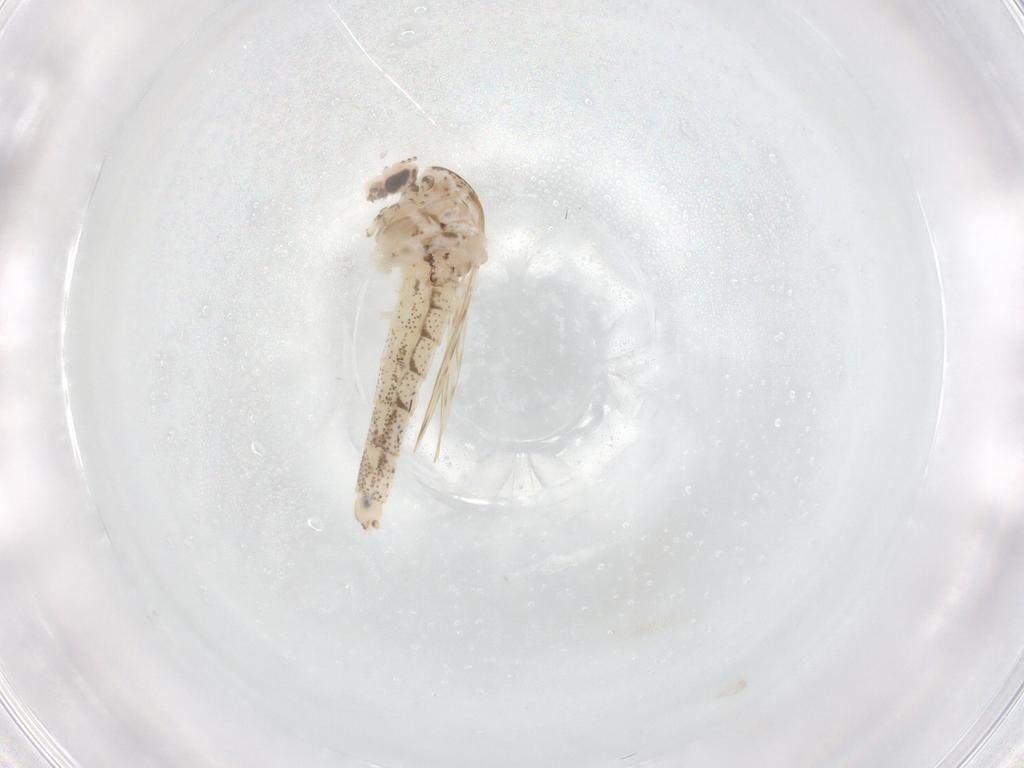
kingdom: Animalia
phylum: Arthropoda
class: Insecta
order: Diptera
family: Chaoboridae
